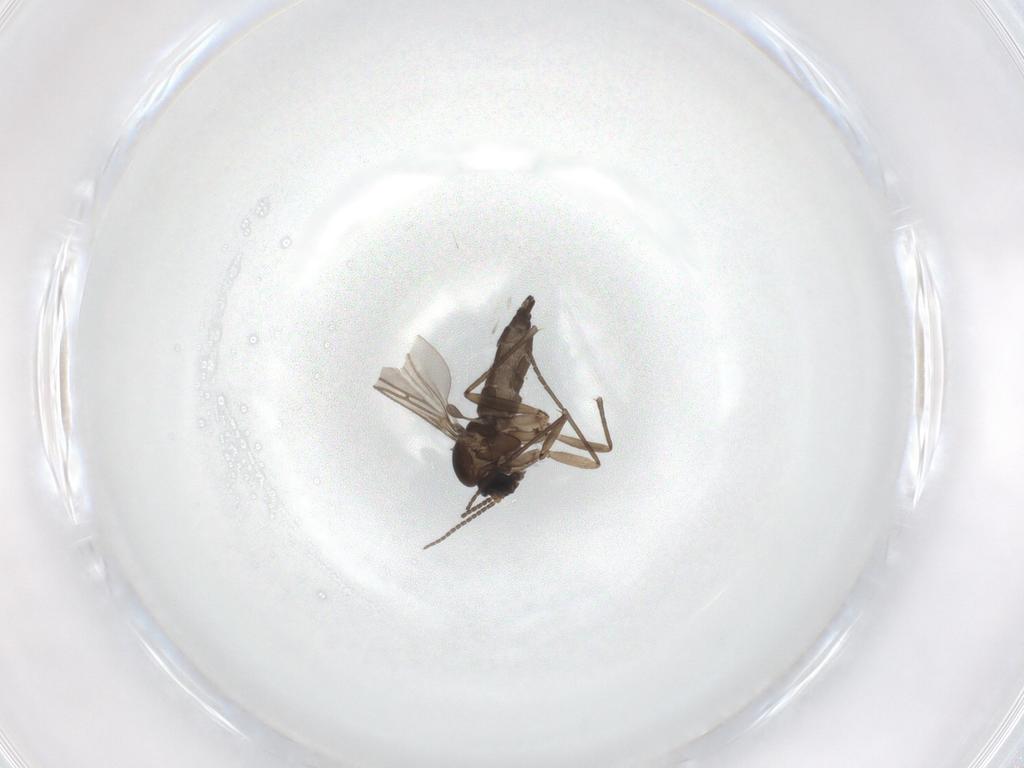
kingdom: Animalia
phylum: Arthropoda
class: Insecta
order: Diptera
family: Sciaridae
